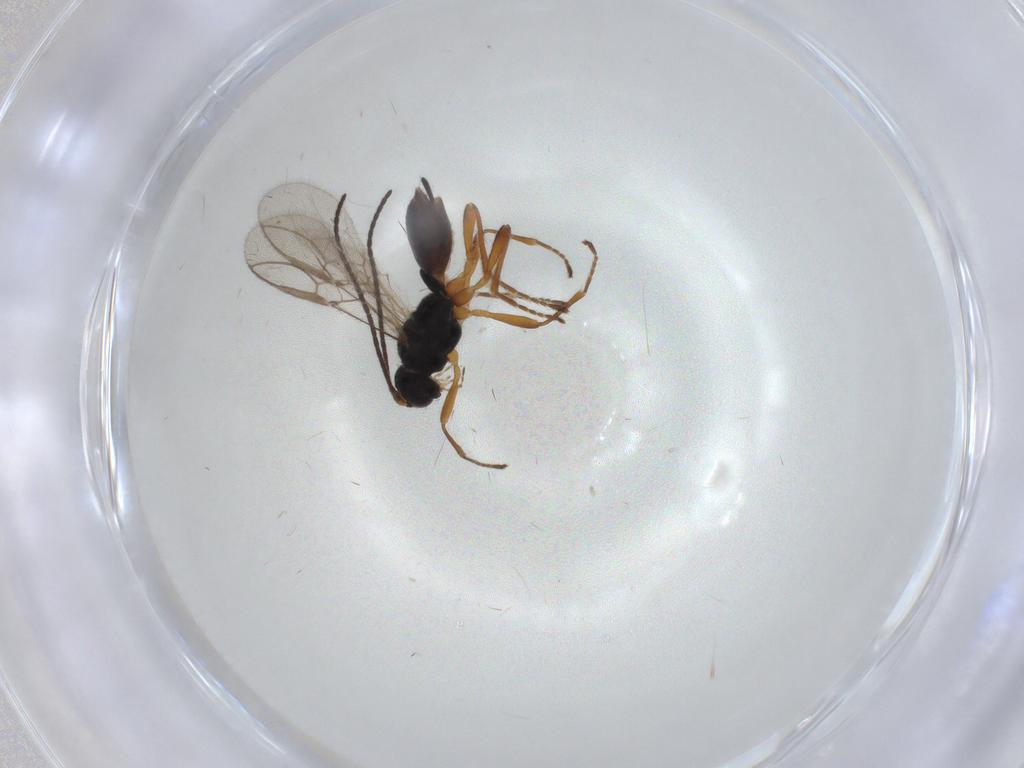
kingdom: Animalia
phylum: Arthropoda
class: Insecta
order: Hymenoptera
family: Braconidae
